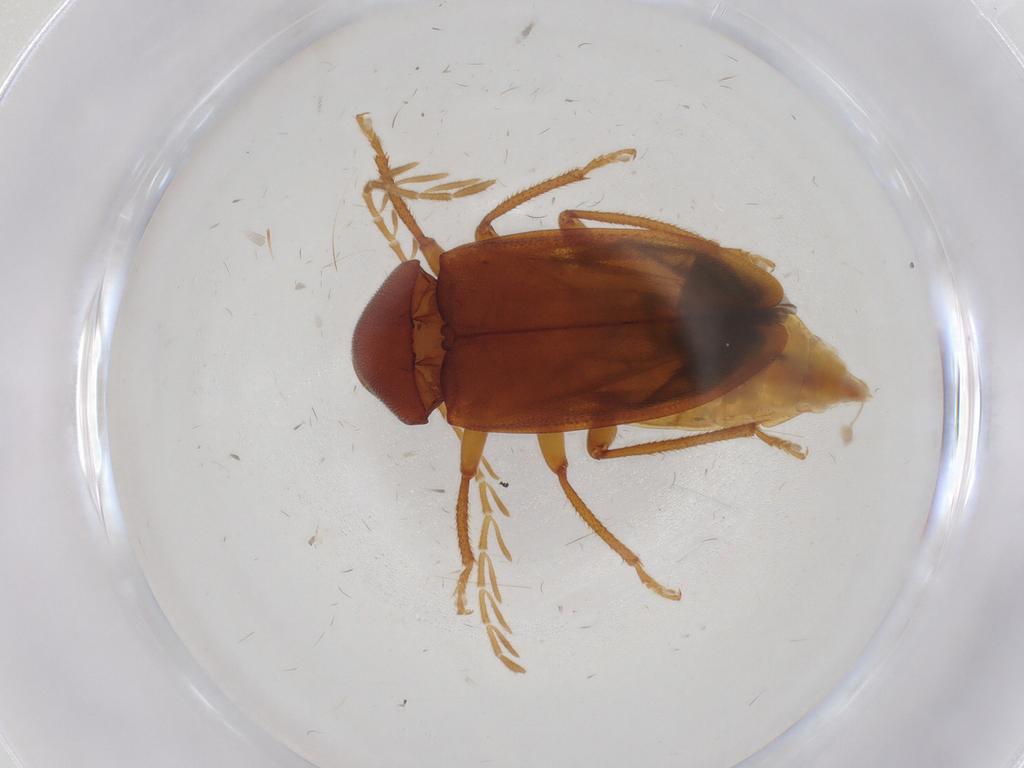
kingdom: Animalia
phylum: Arthropoda
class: Insecta
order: Coleoptera
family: Ptilodactylidae
